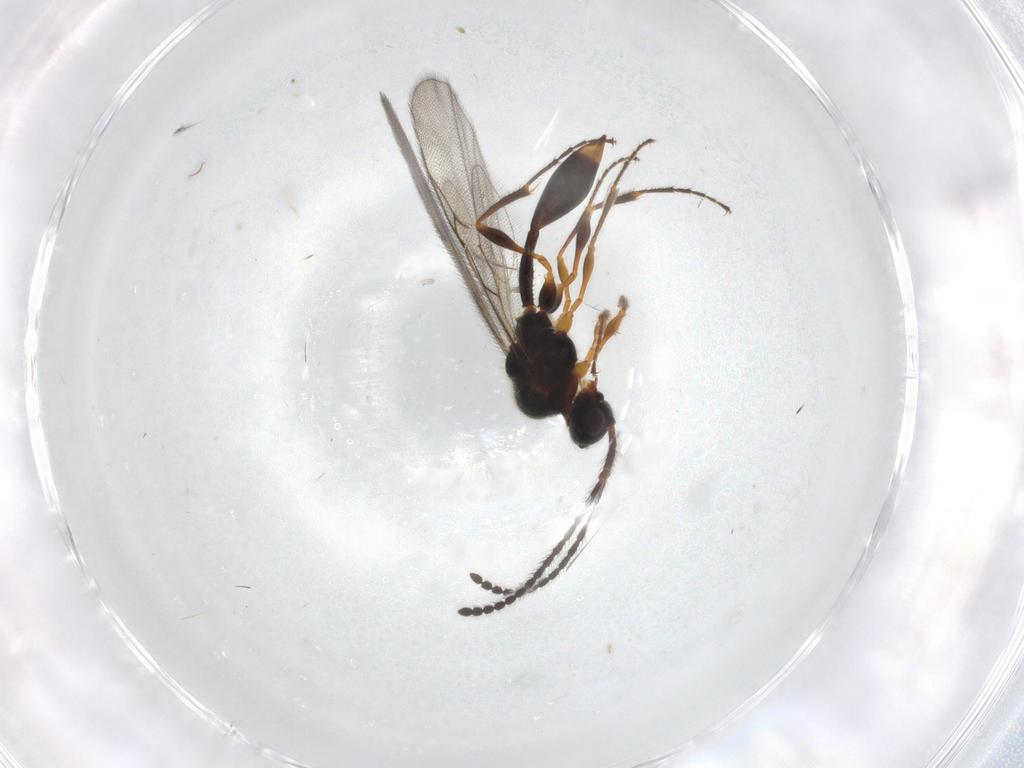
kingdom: Animalia
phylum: Arthropoda
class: Insecta
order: Hymenoptera
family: Diapriidae
